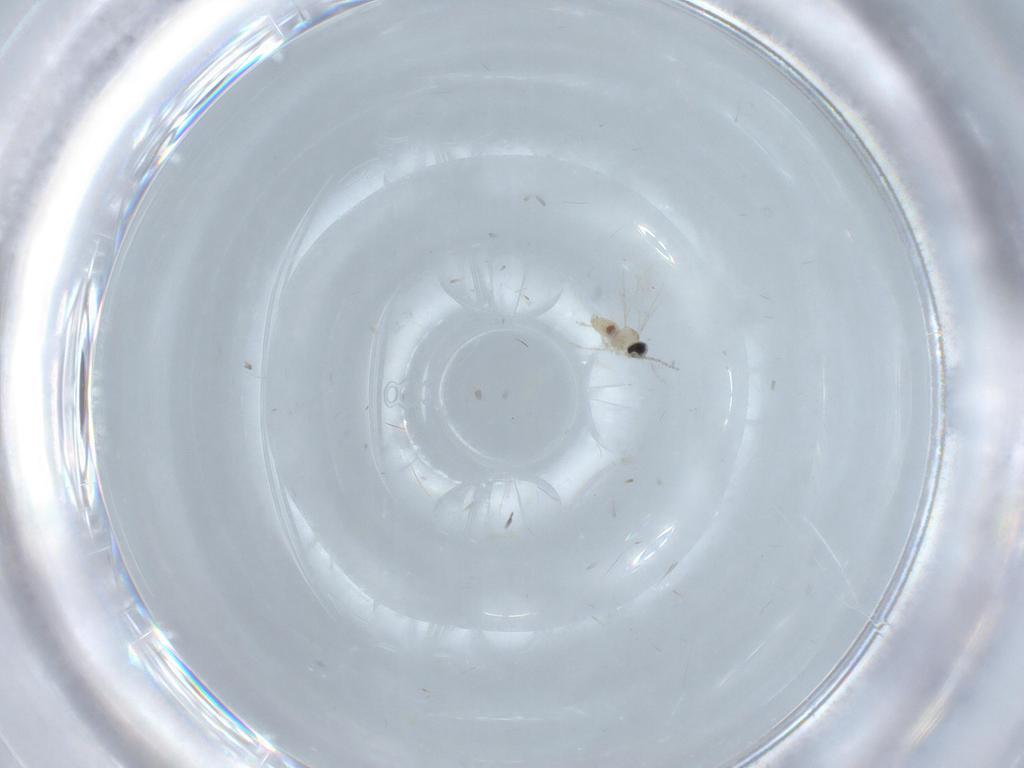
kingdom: Animalia
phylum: Arthropoda
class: Insecta
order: Diptera
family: Cecidomyiidae
